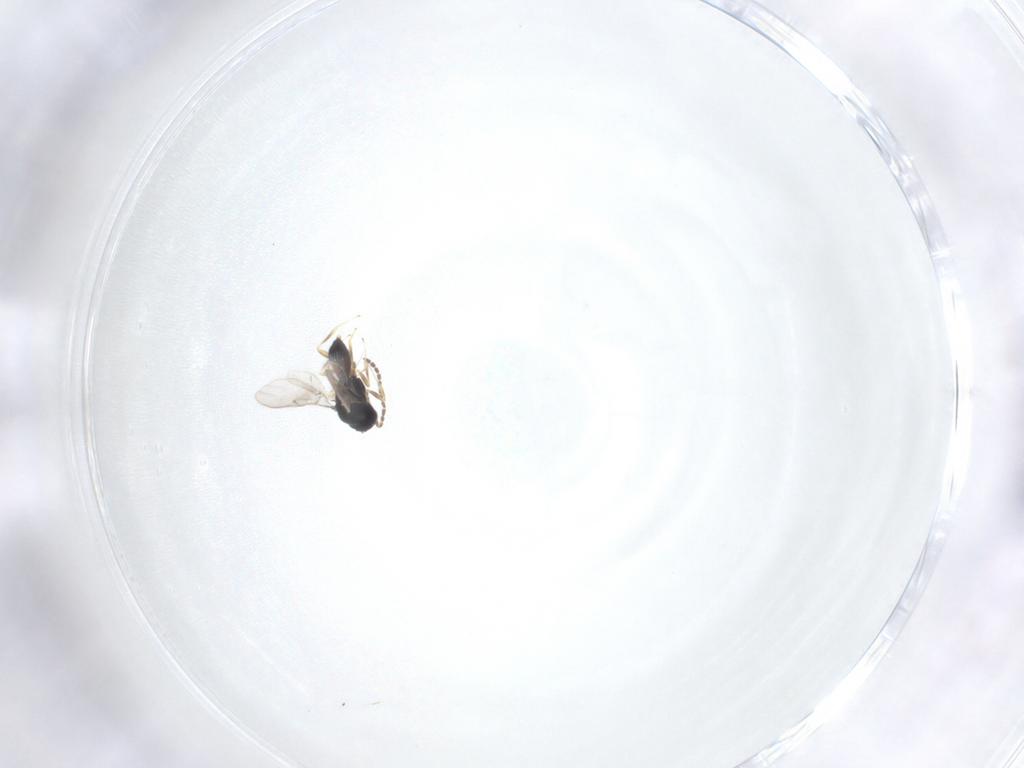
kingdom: Animalia
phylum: Arthropoda
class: Insecta
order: Hymenoptera
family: Scelionidae
